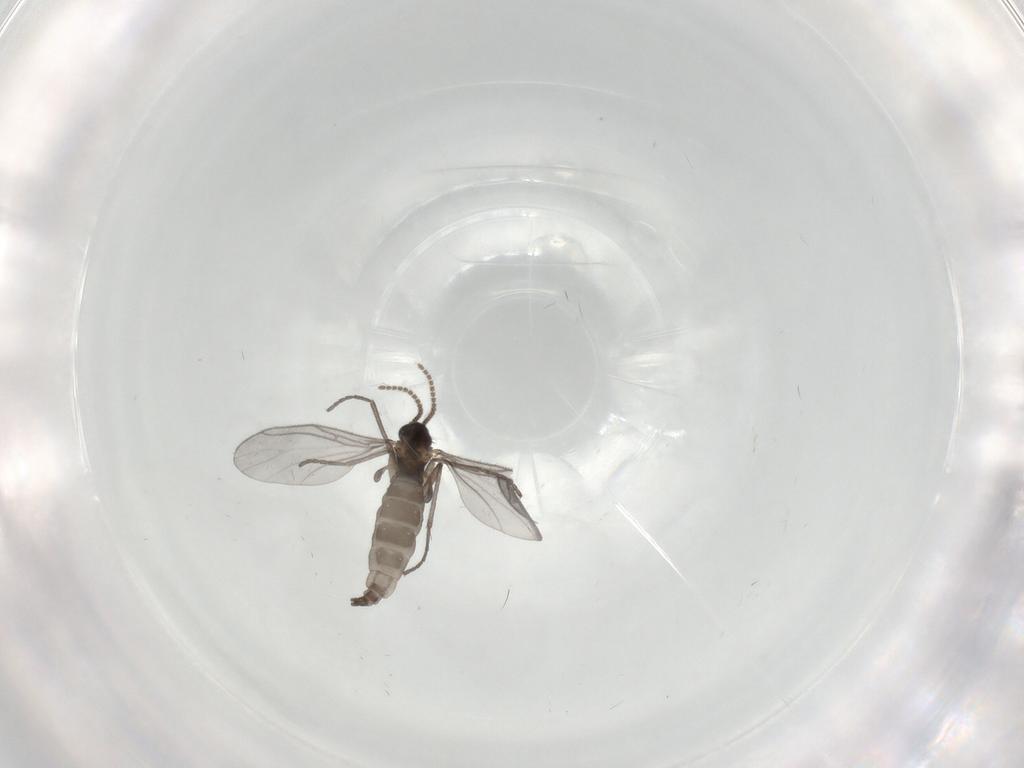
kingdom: Animalia
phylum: Arthropoda
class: Insecta
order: Diptera
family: Sciaridae
